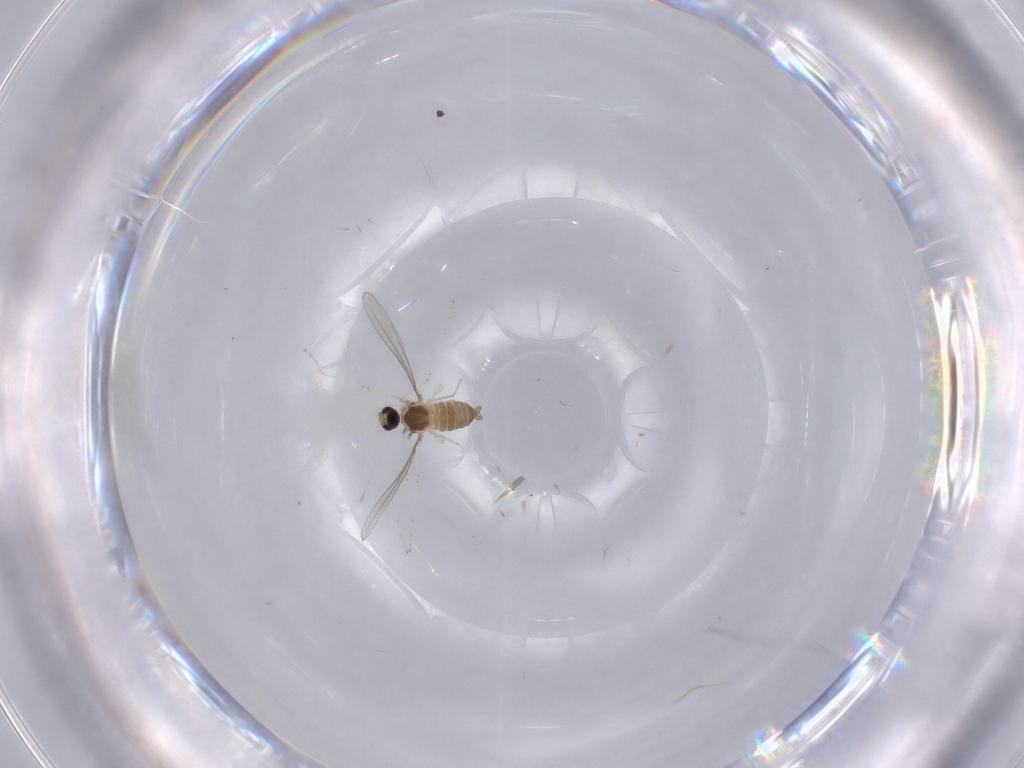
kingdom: Animalia
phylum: Arthropoda
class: Insecta
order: Diptera
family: Cecidomyiidae
